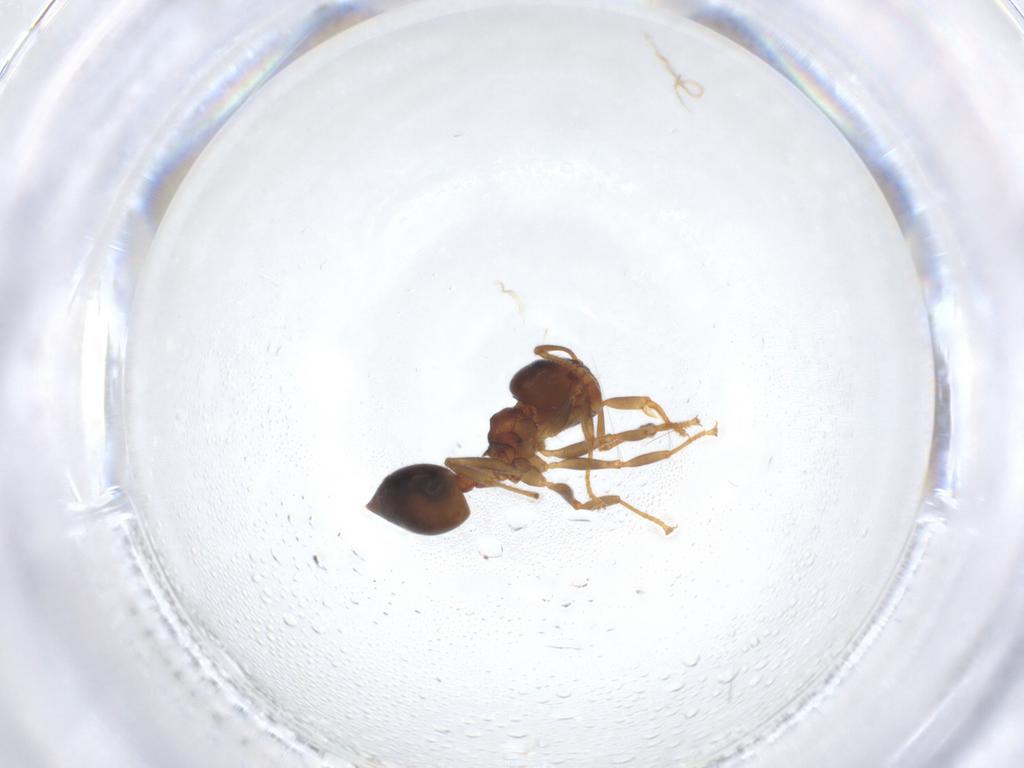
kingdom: Animalia
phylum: Arthropoda
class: Insecta
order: Hymenoptera
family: Formicidae
